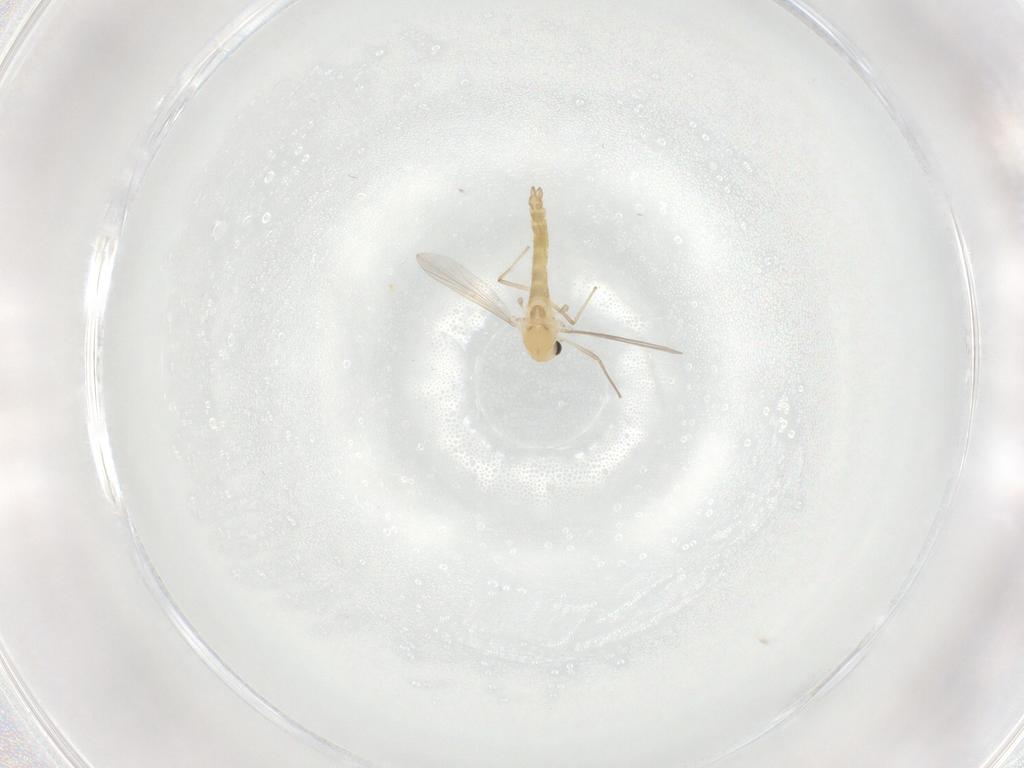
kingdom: Animalia
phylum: Arthropoda
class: Insecta
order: Diptera
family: Chironomidae
